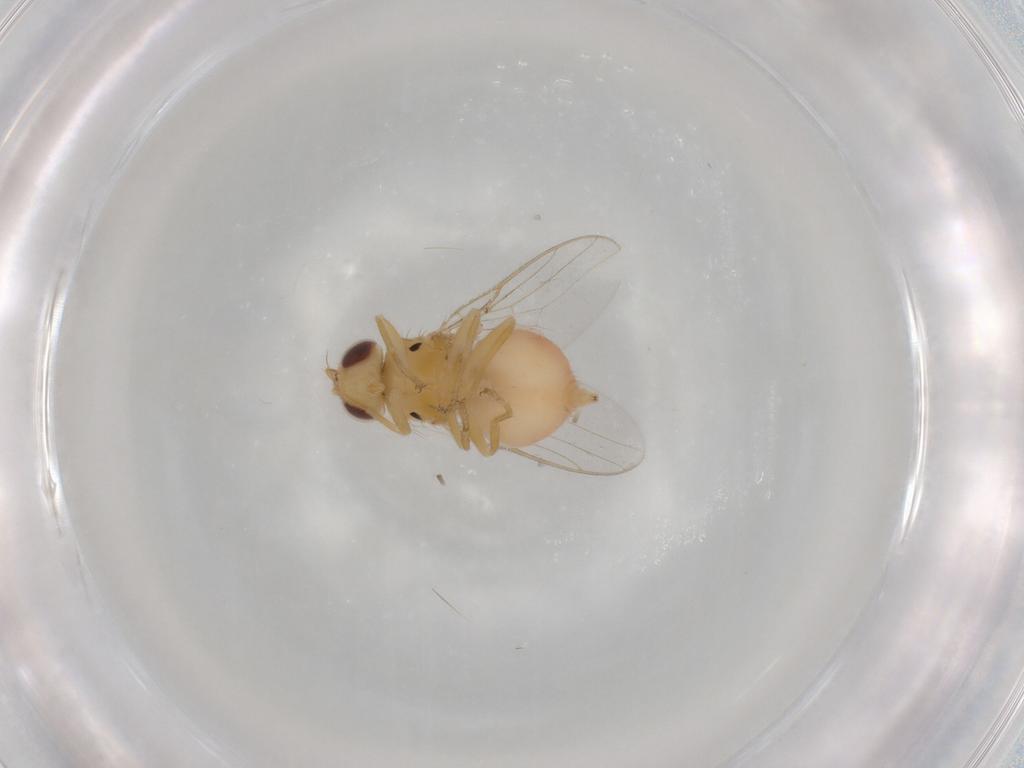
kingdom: Animalia
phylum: Arthropoda
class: Insecta
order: Diptera
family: Chloropidae
